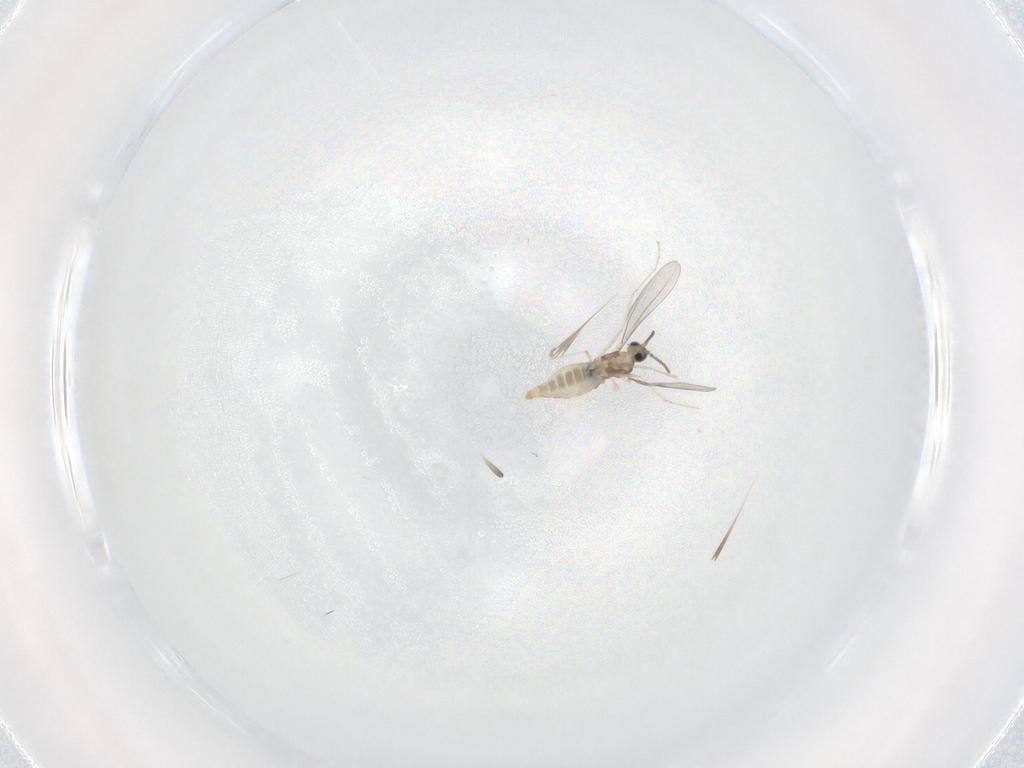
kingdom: Animalia
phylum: Arthropoda
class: Insecta
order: Diptera
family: Cecidomyiidae
